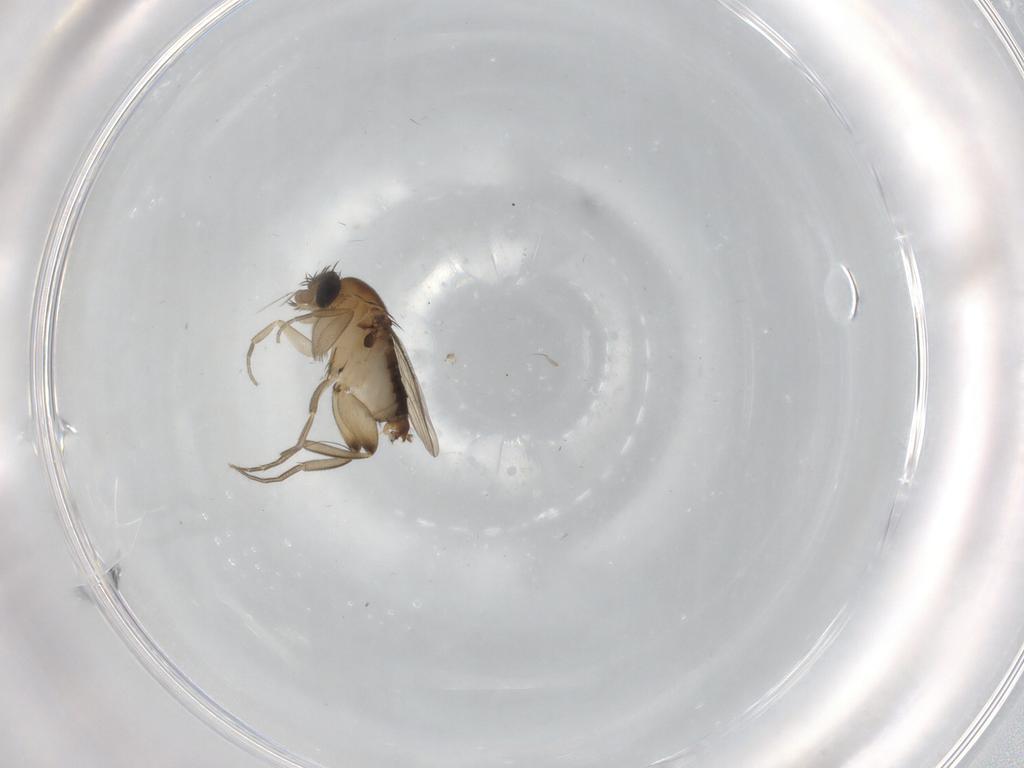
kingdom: Animalia
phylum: Arthropoda
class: Insecta
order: Diptera
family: Phoridae
